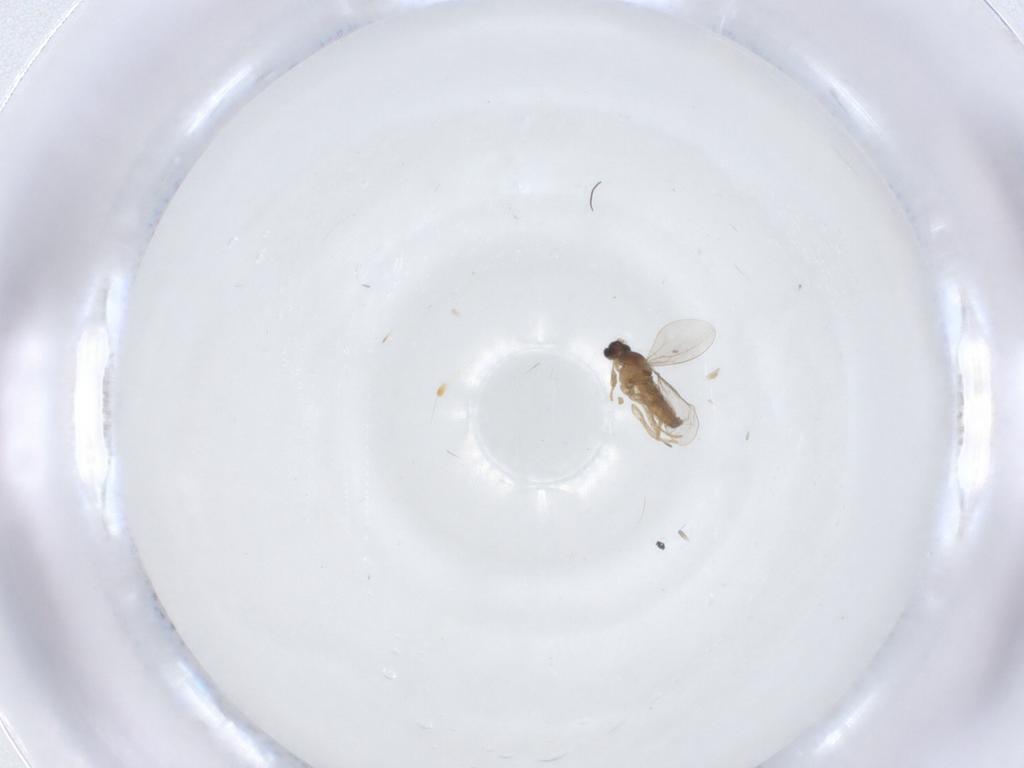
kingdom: Animalia
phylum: Arthropoda
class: Insecta
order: Diptera
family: Cecidomyiidae
